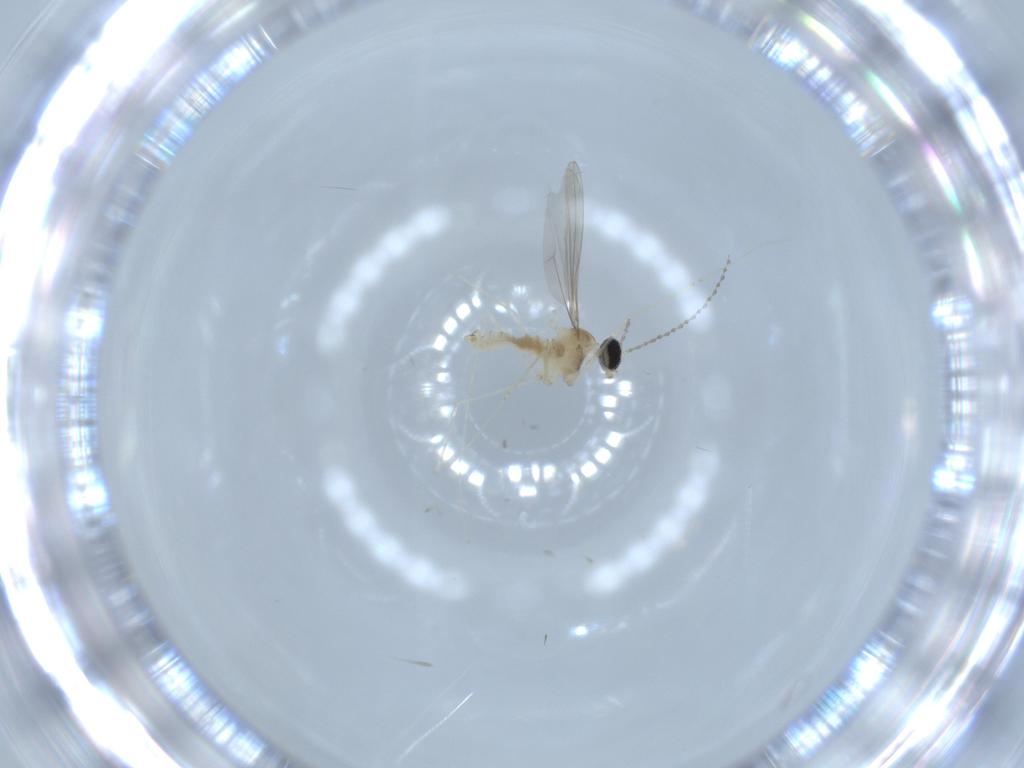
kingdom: Animalia
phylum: Arthropoda
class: Insecta
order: Diptera
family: Cecidomyiidae
